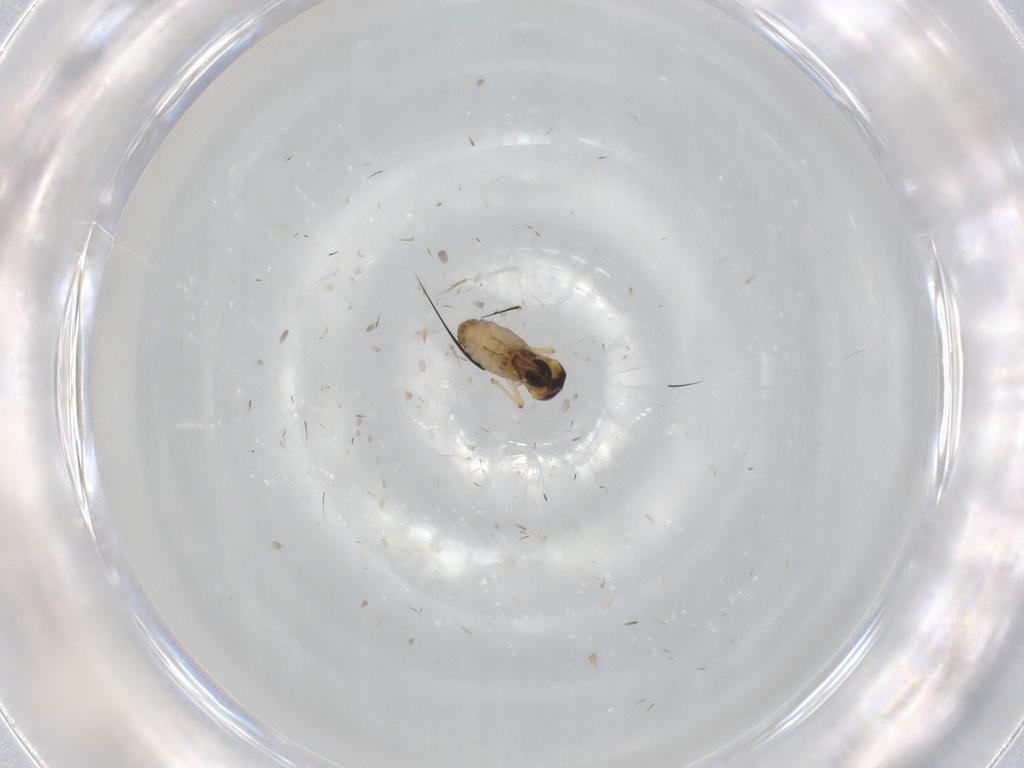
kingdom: Animalia
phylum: Arthropoda
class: Insecta
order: Diptera
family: Ceratopogonidae
